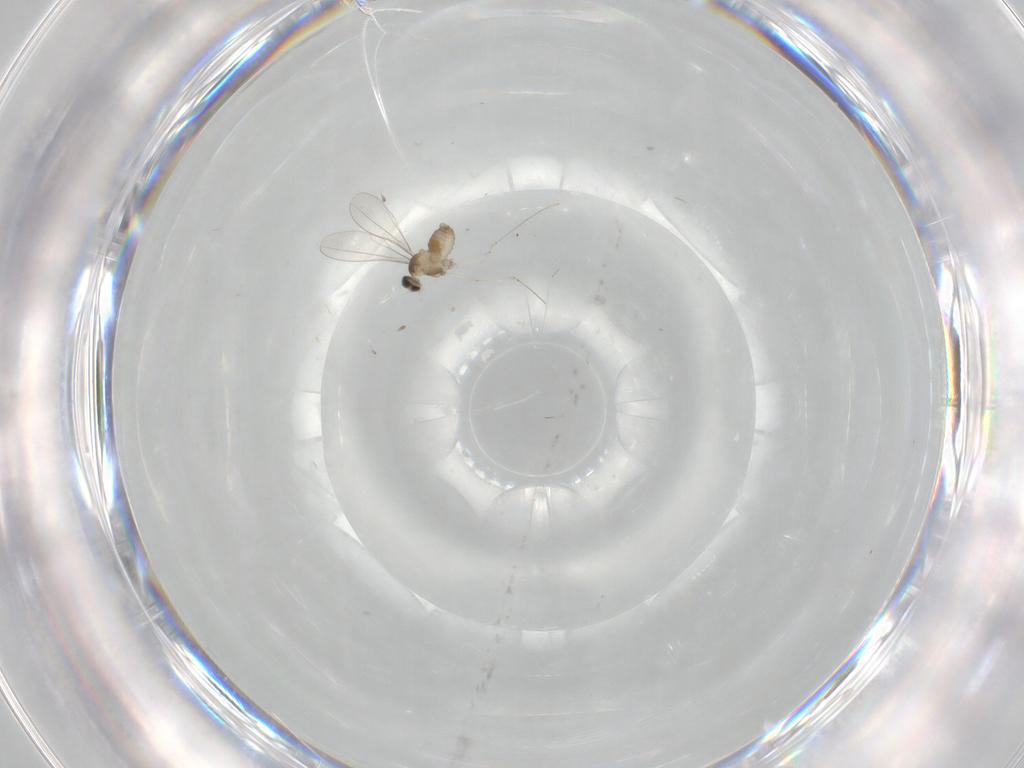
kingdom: Animalia
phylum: Arthropoda
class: Insecta
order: Diptera
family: Cecidomyiidae
